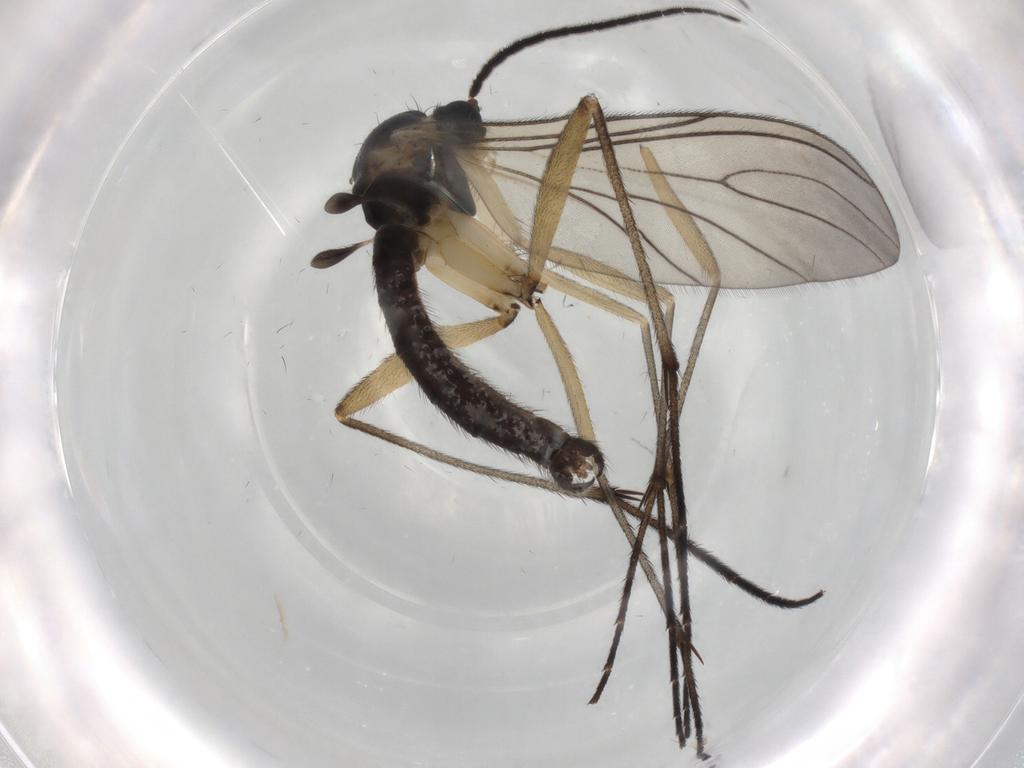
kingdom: Animalia
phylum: Arthropoda
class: Insecta
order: Diptera
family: Sciaridae
